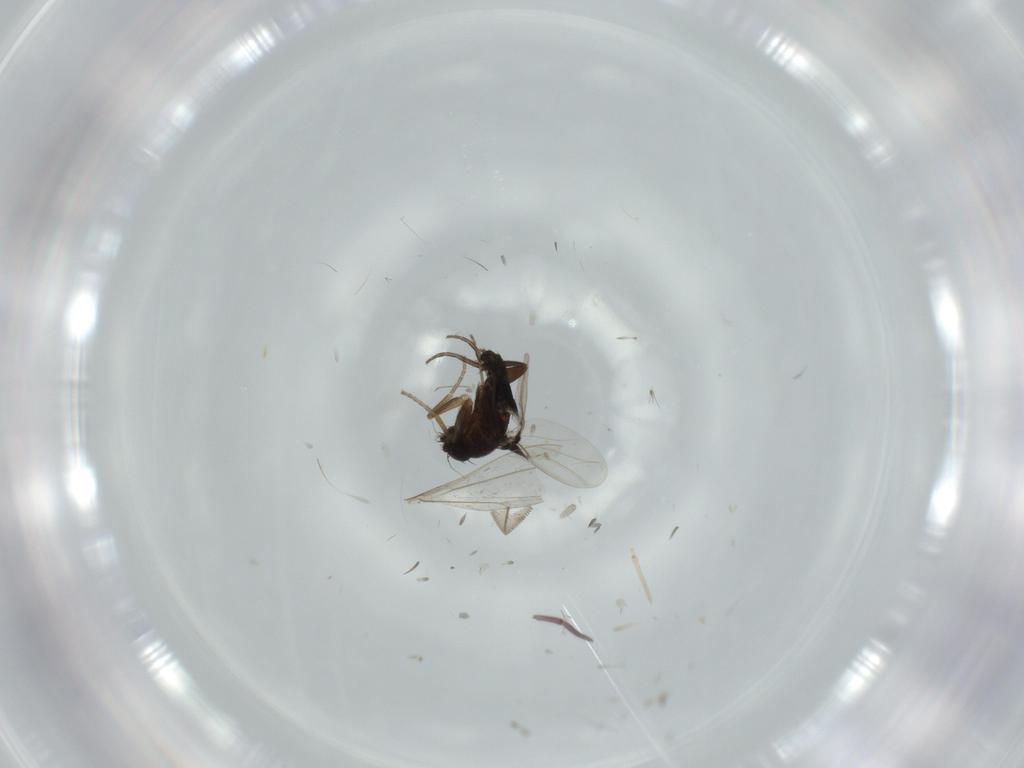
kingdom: Animalia
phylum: Arthropoda
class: Insecta
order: Diptera
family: Phoridae
